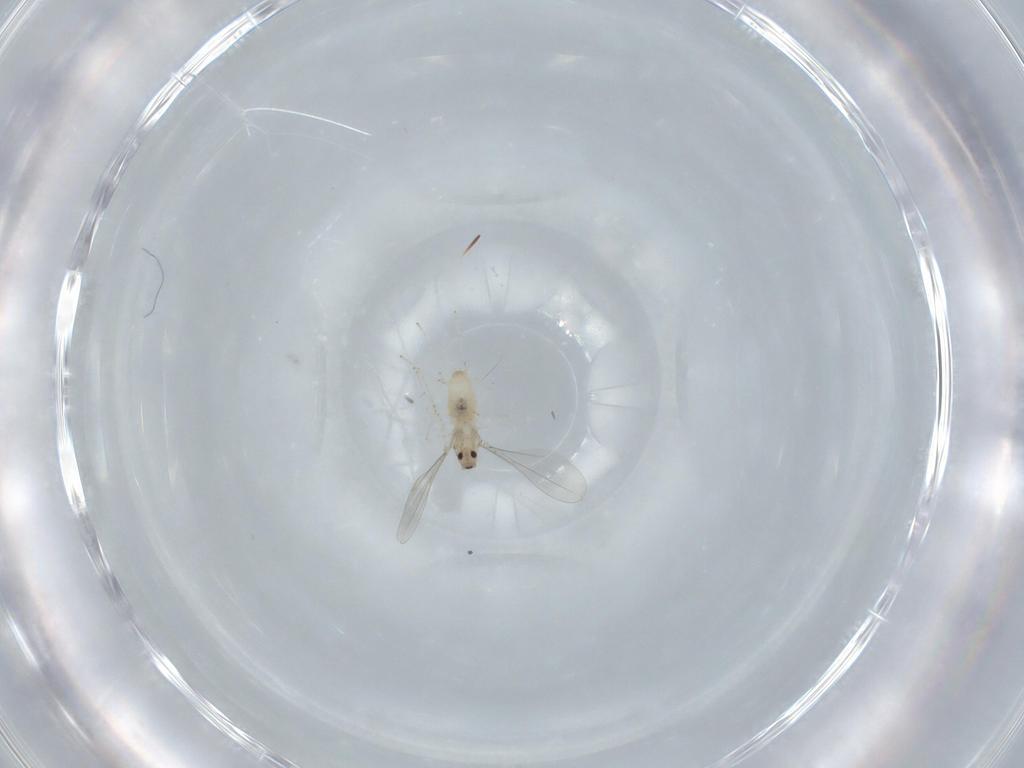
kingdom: Animalia
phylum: Arthropoda
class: Insecta
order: Diptera
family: Cecidomyiidae
